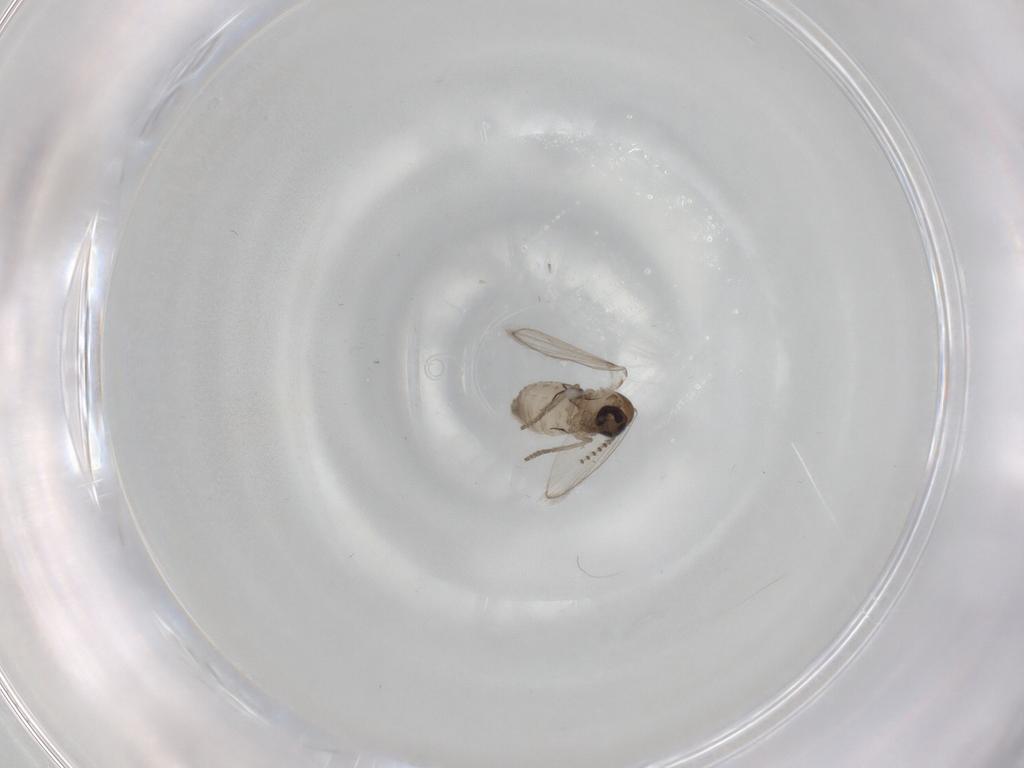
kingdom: Animalia
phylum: Arthropoda
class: Insecta
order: Diptera
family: Psychodidae
